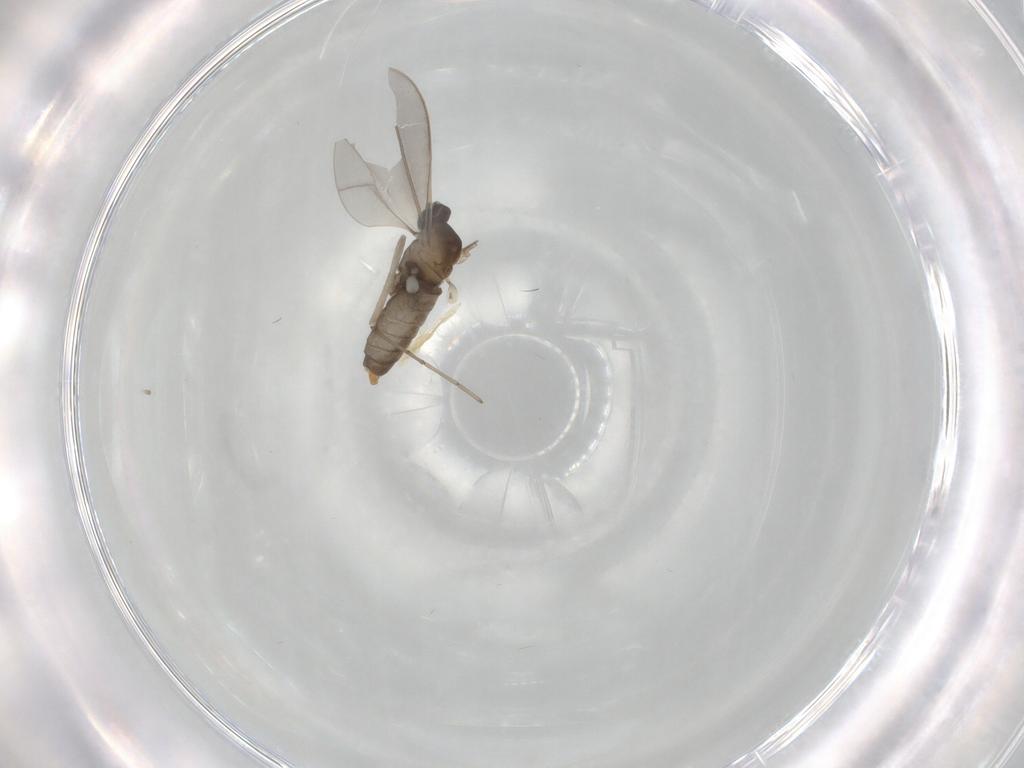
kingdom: Animalia
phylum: Arthropoda
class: Insecta
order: Diptera
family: Cecidomyiidae
